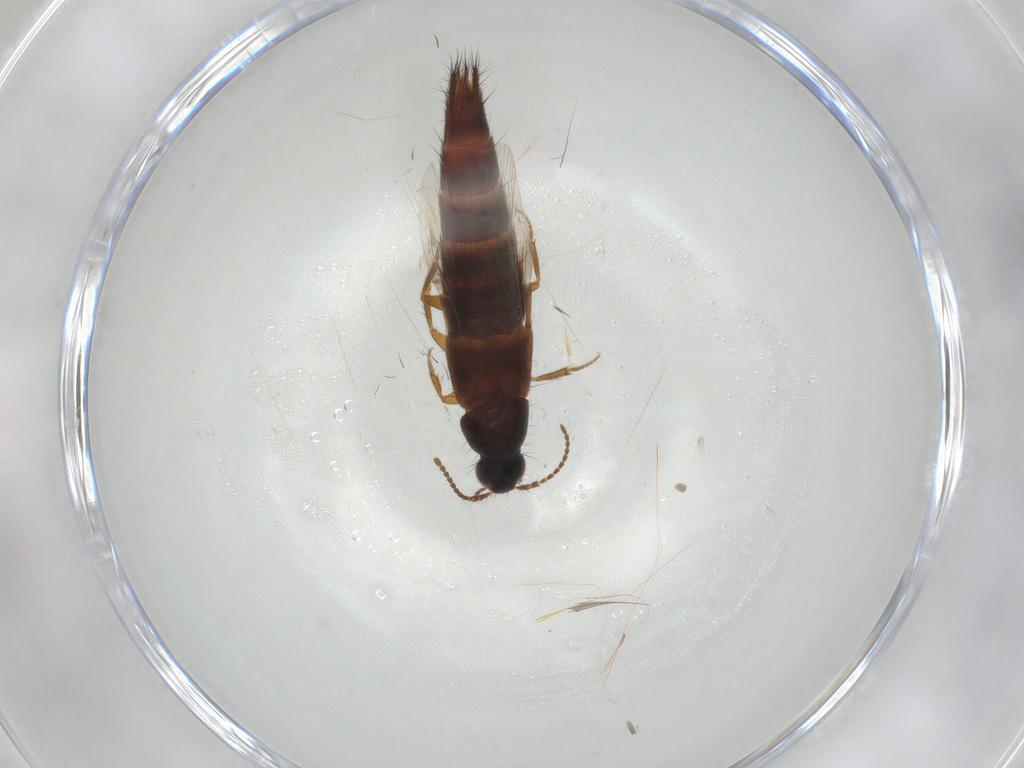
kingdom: Animalia
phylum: Arthropoda
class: Insecta
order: Coleoptera
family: Staphylinidae
